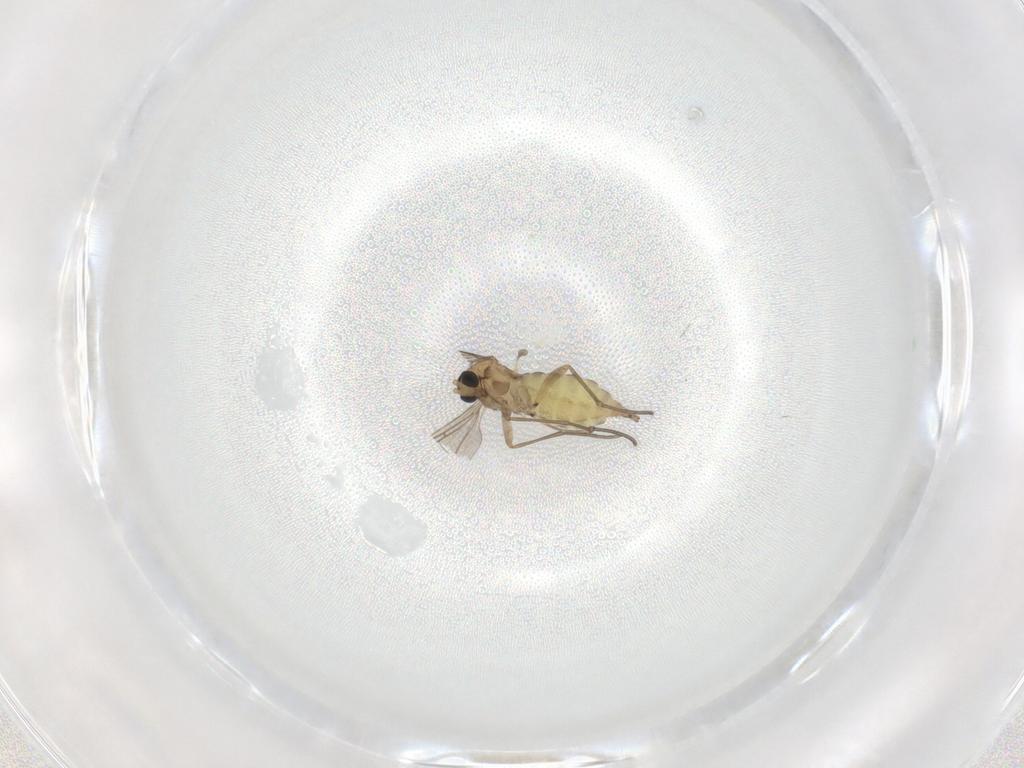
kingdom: Animalia
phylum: Arthropoda
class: Insecta
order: Diptera
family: Sciaridae
